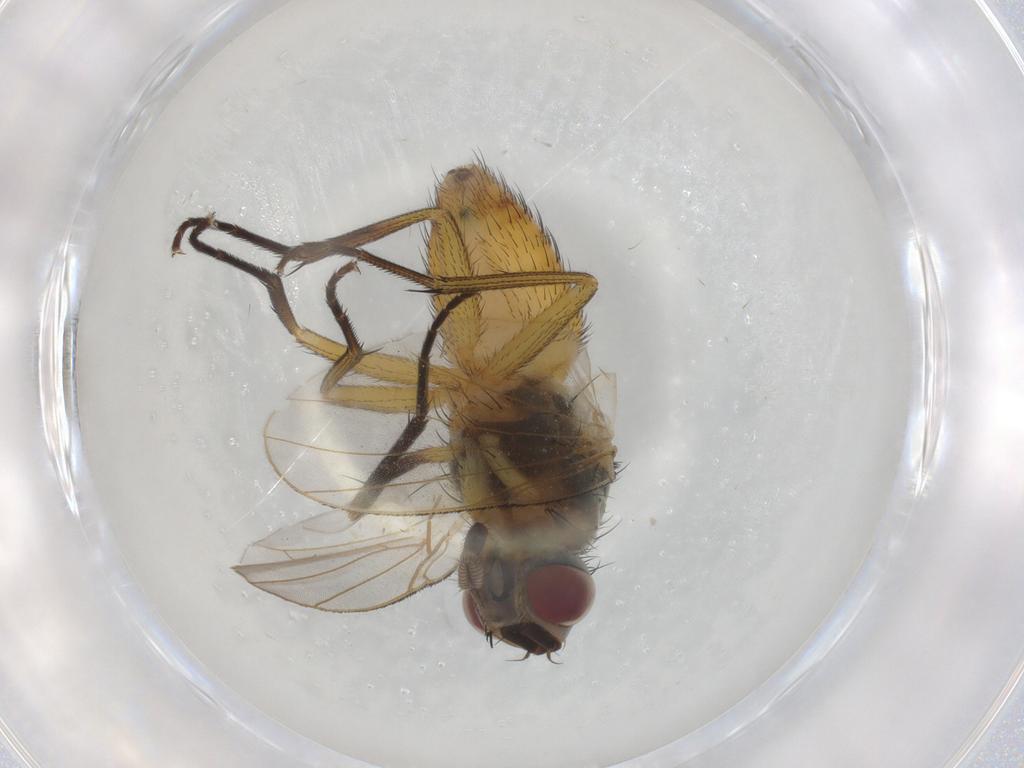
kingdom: Animalia
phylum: Arthropoda
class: Insecta
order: Diptera
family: Muscidae
